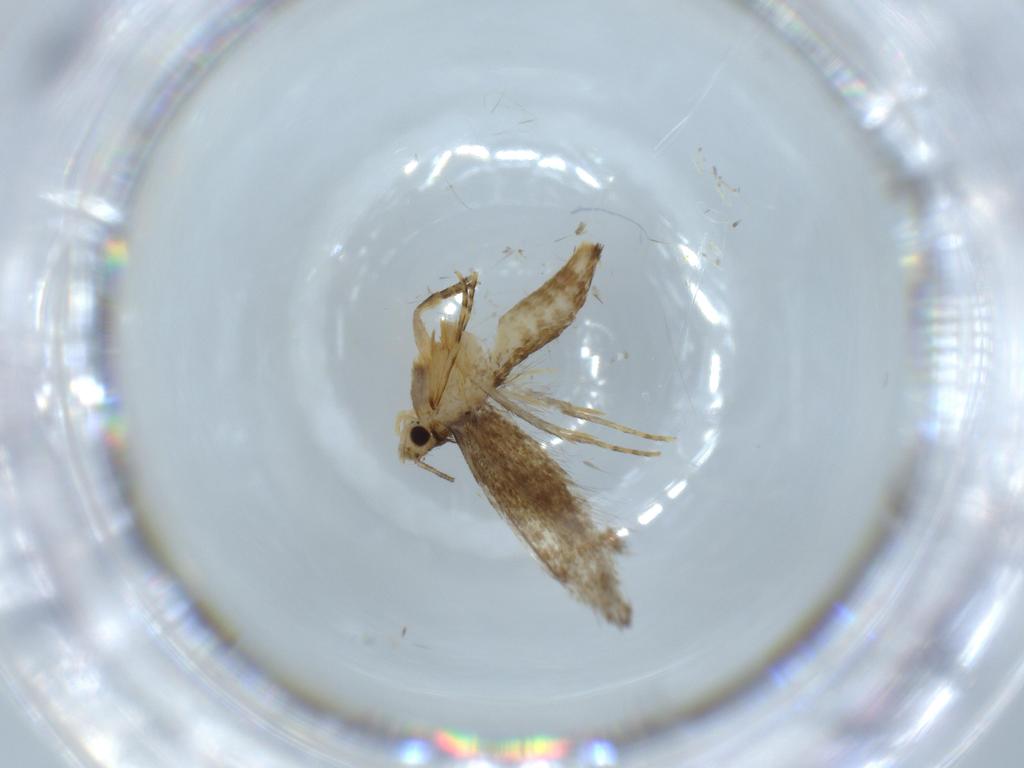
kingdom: Animalia
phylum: Arthropoda
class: Insecta
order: Lepidoptera
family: Tineidae
